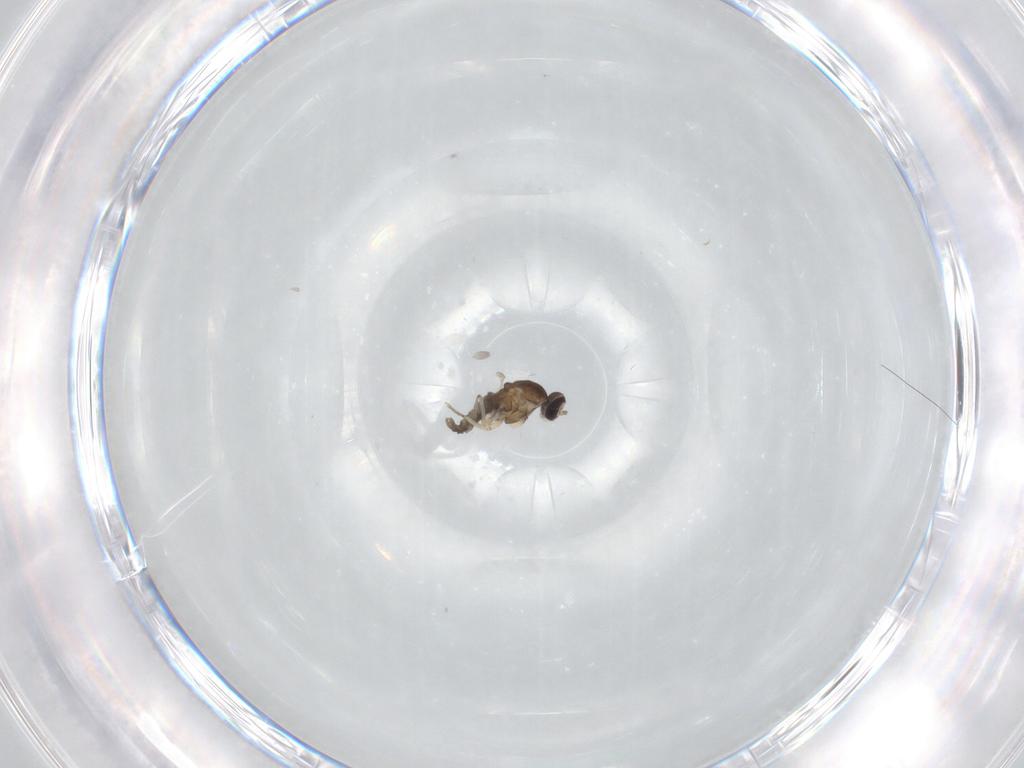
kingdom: Animalia
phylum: Arthropoda
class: Insecta
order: Diptera
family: Cecidomyiidae
